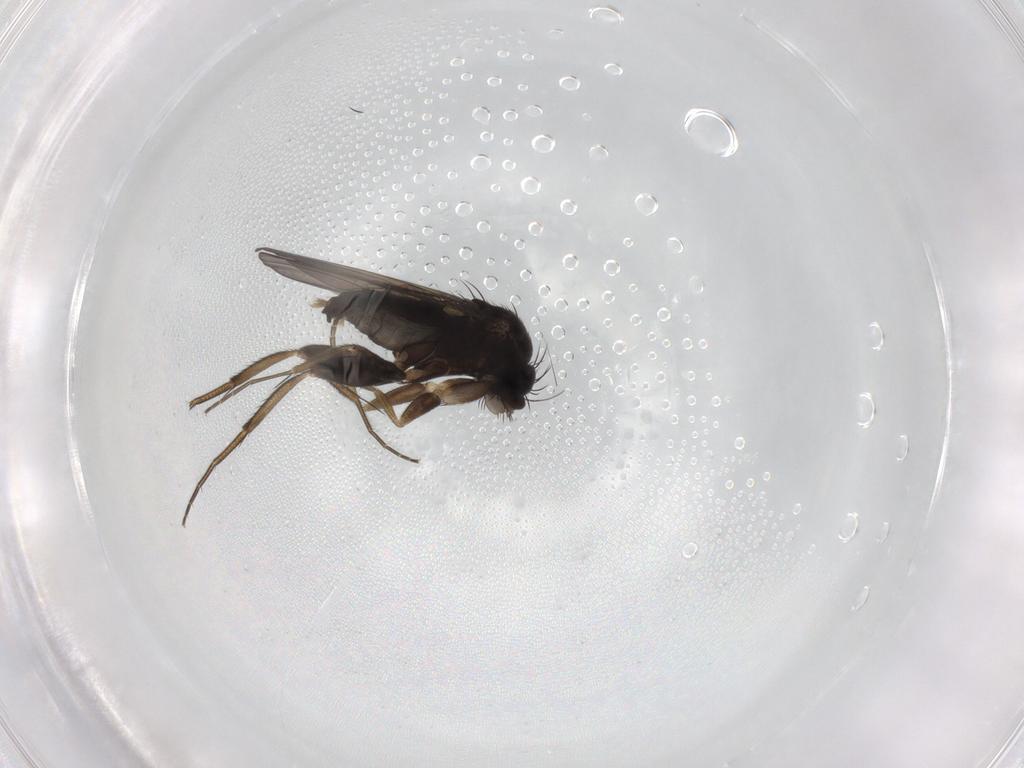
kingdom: Animalia
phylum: Arthropoda
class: Insecta
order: Diptera
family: Phoridae
